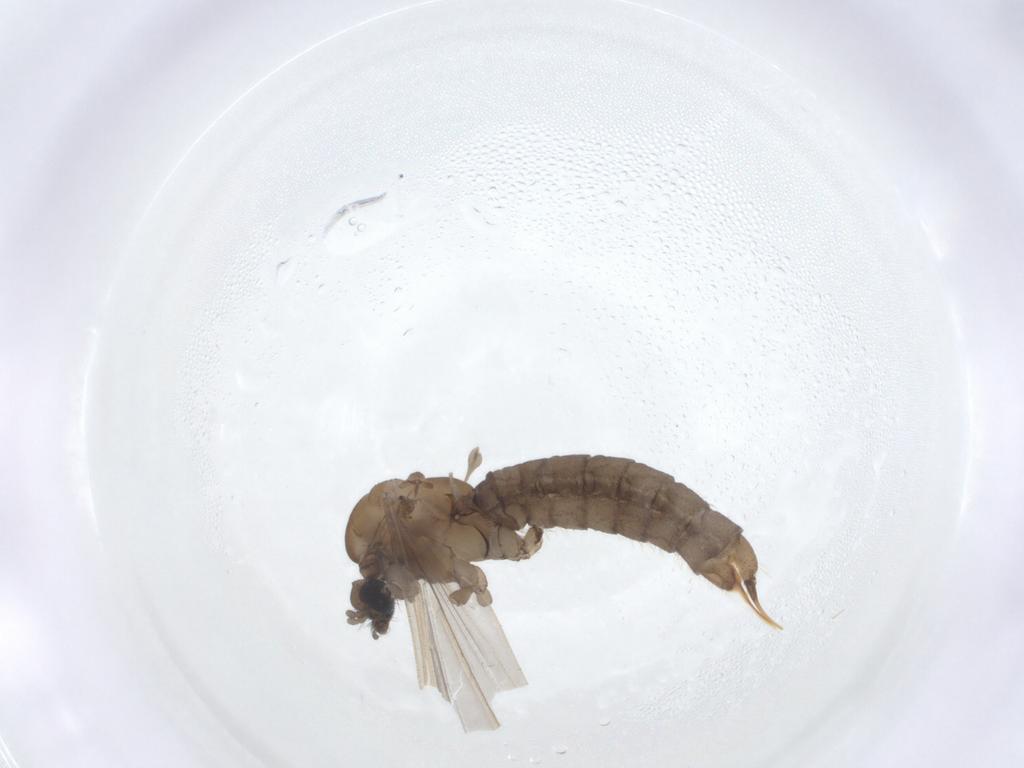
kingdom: Animalia
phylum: Arthropoda
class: Insecta
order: Diptera
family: Limoniidae
